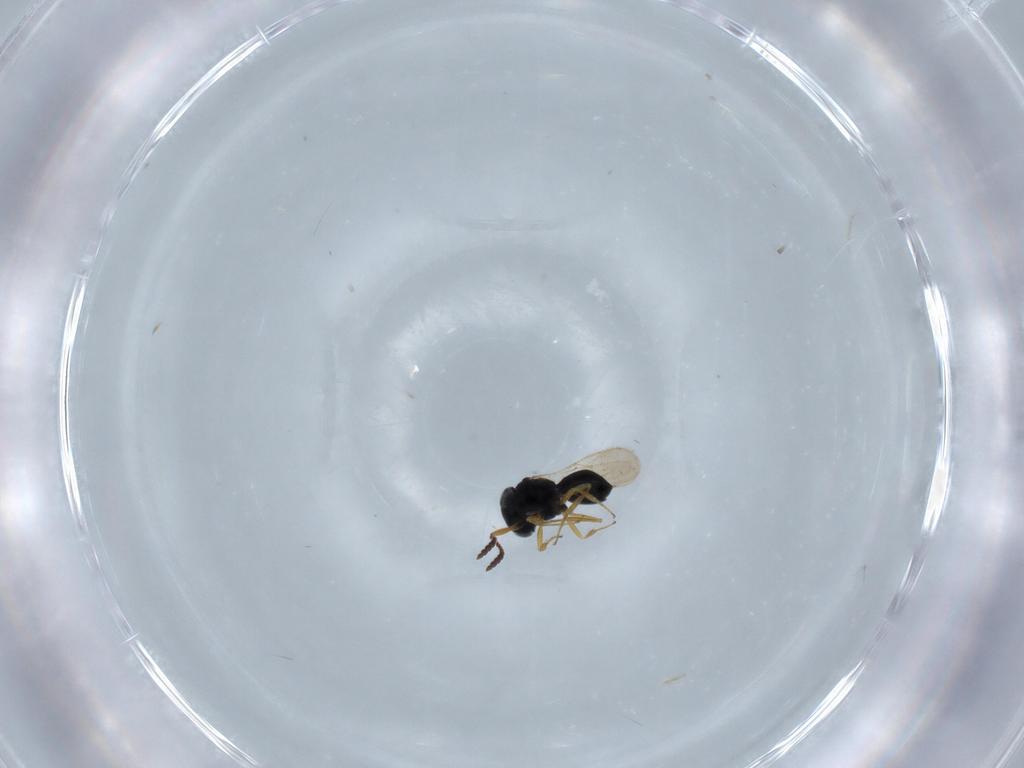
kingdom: Animalia
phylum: Arthropoda
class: Insecta
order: Hymenoptera
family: Scelionidae
